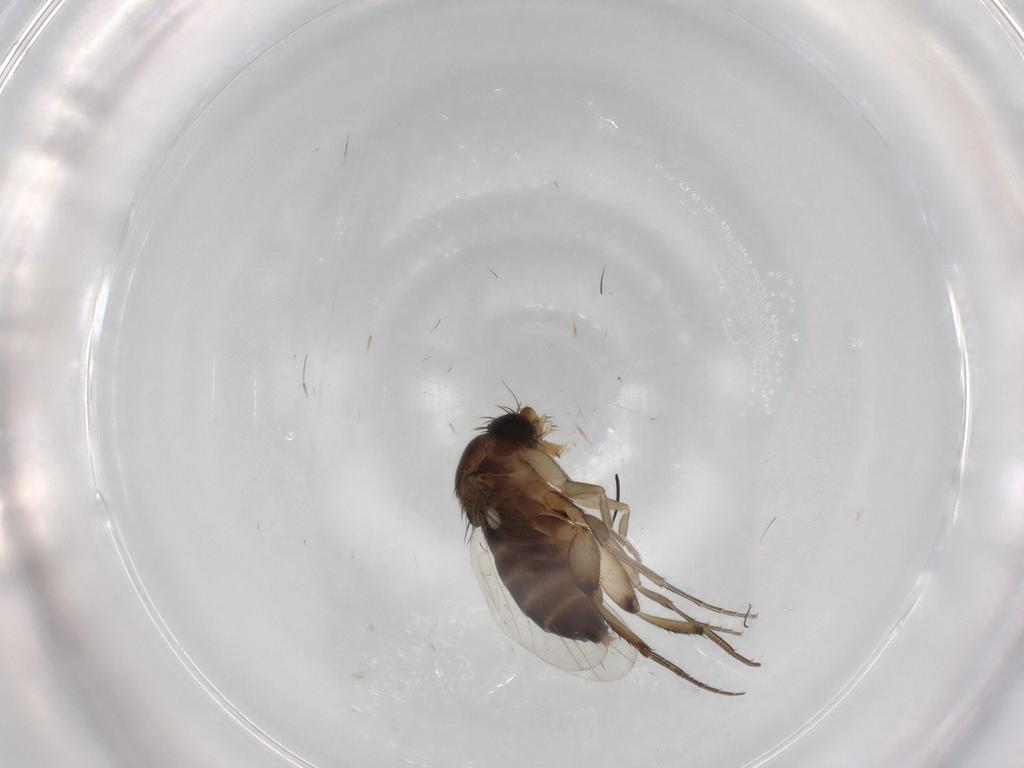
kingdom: Animalia
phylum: Arthropoda
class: Insecta
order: Diptera
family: Phoridae
